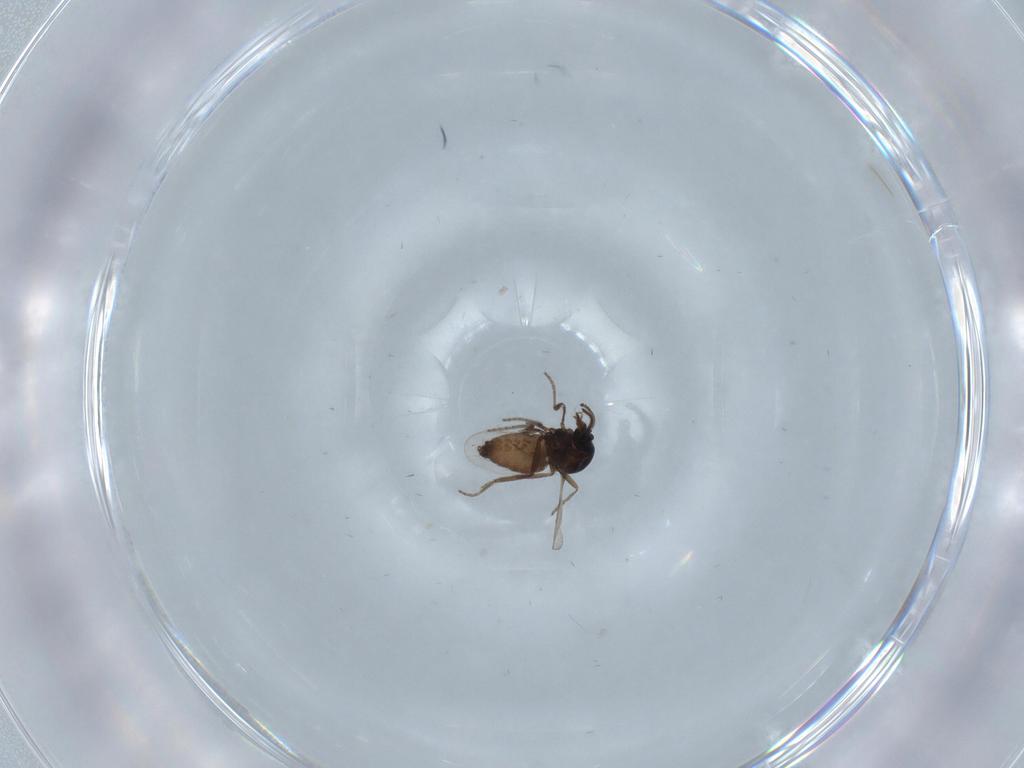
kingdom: Animalia
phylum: Arthropoda
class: Insecta
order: Diptera
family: Ceratopogonidae
